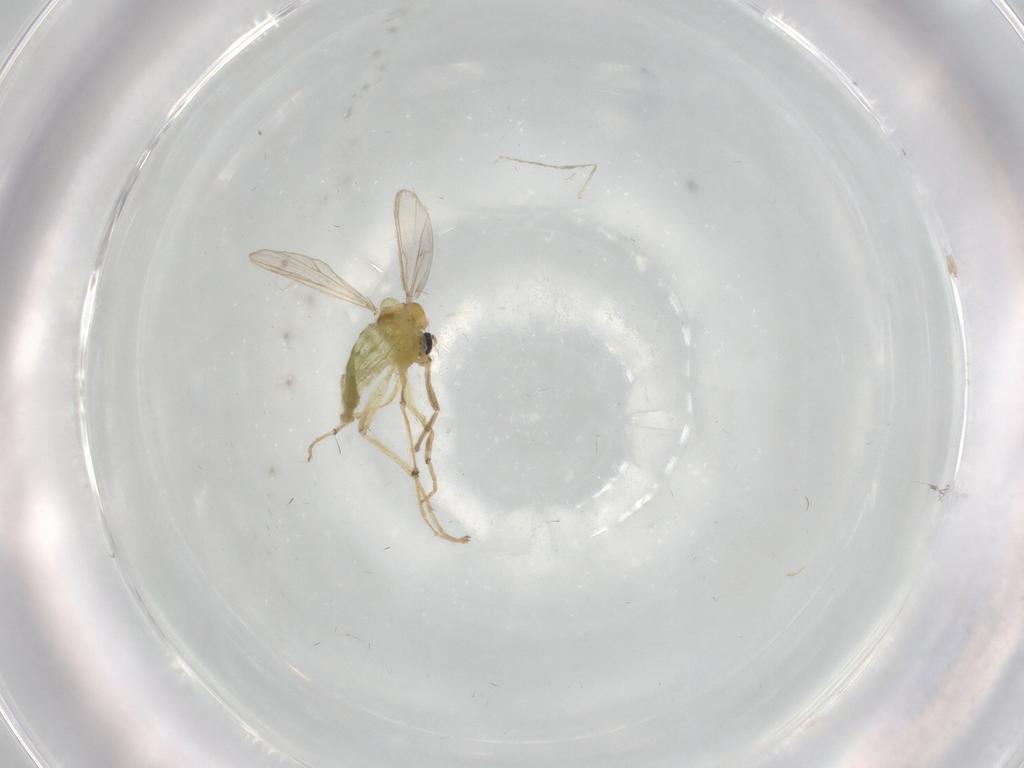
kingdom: Animalia
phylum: Arthropoda
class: Insecta
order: Diptera
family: Chironomidae
